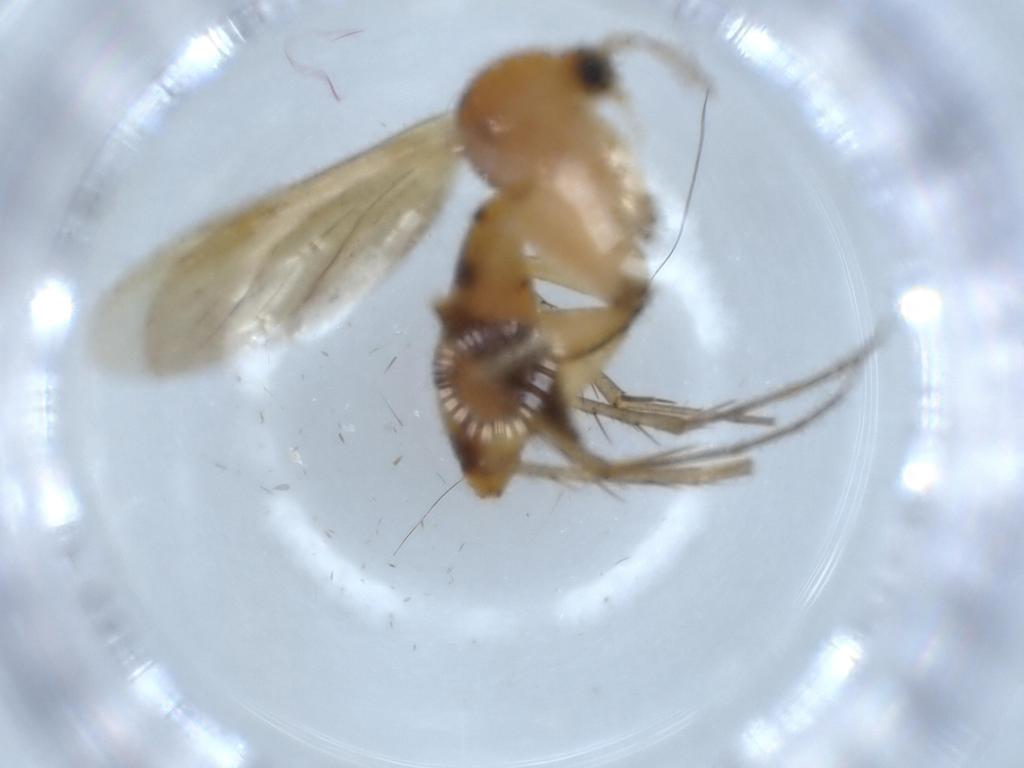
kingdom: Animalia
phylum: Arthropoda
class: Insecta
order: Diptera
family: Mycetophilidae
